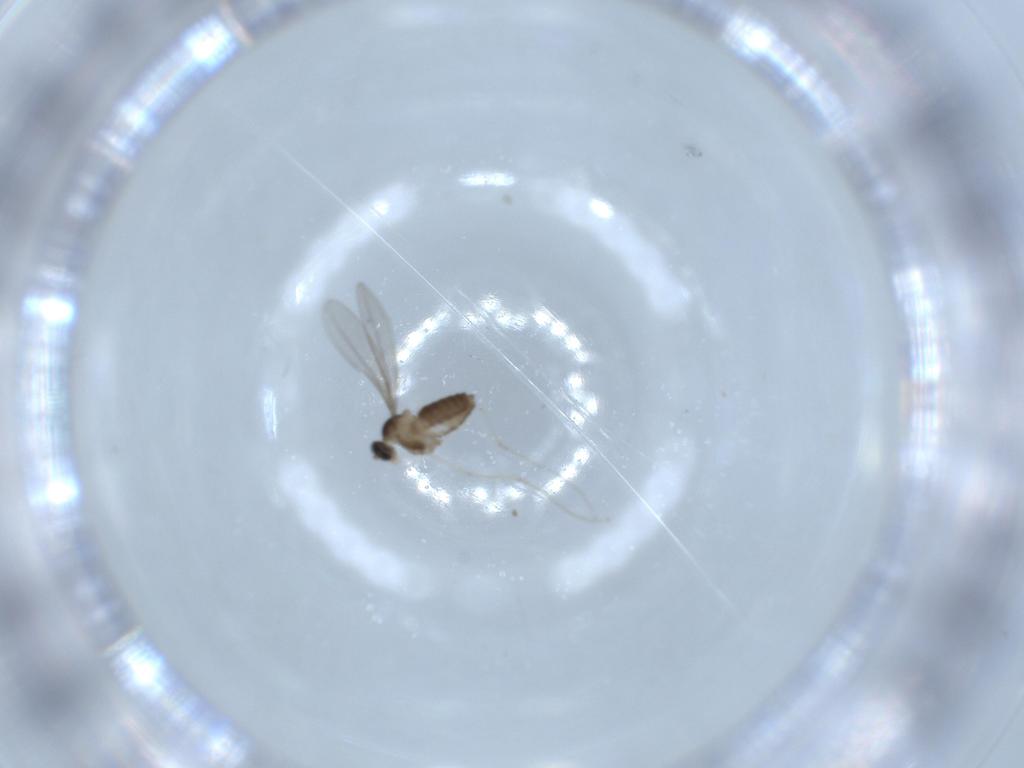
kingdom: Animalia
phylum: Arthropoda
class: Insecta
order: Diptera
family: Cecidomyiidae
